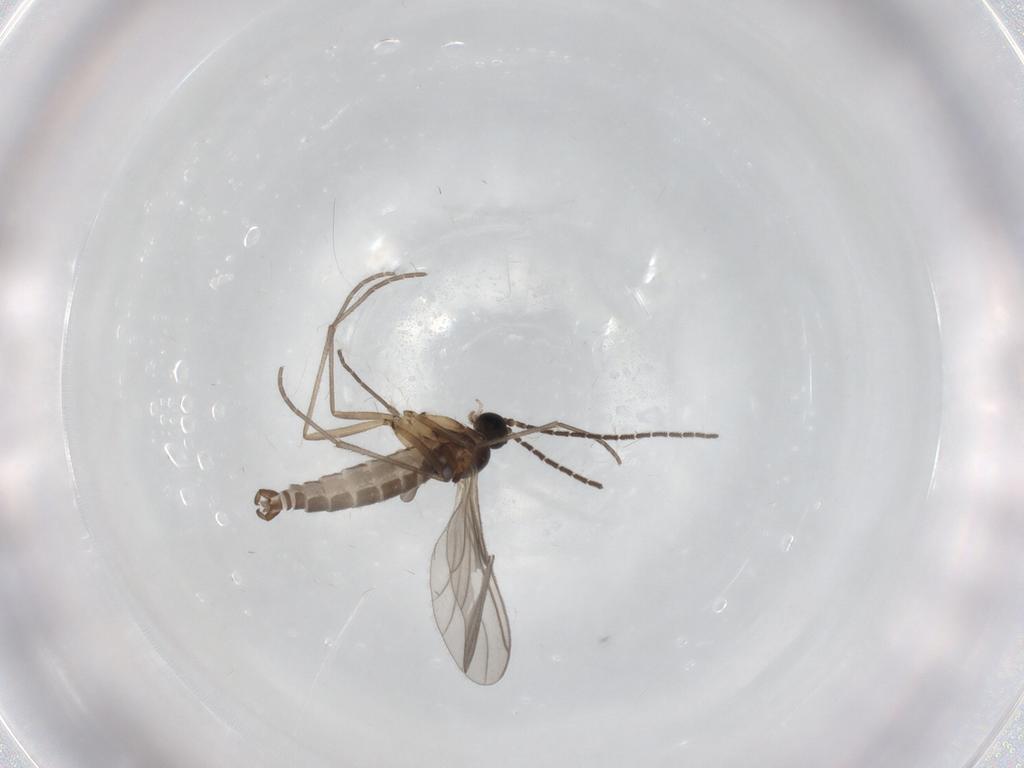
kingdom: Animalia
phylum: Arthropoda
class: Insecta
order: Diptera
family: Sciaridae
